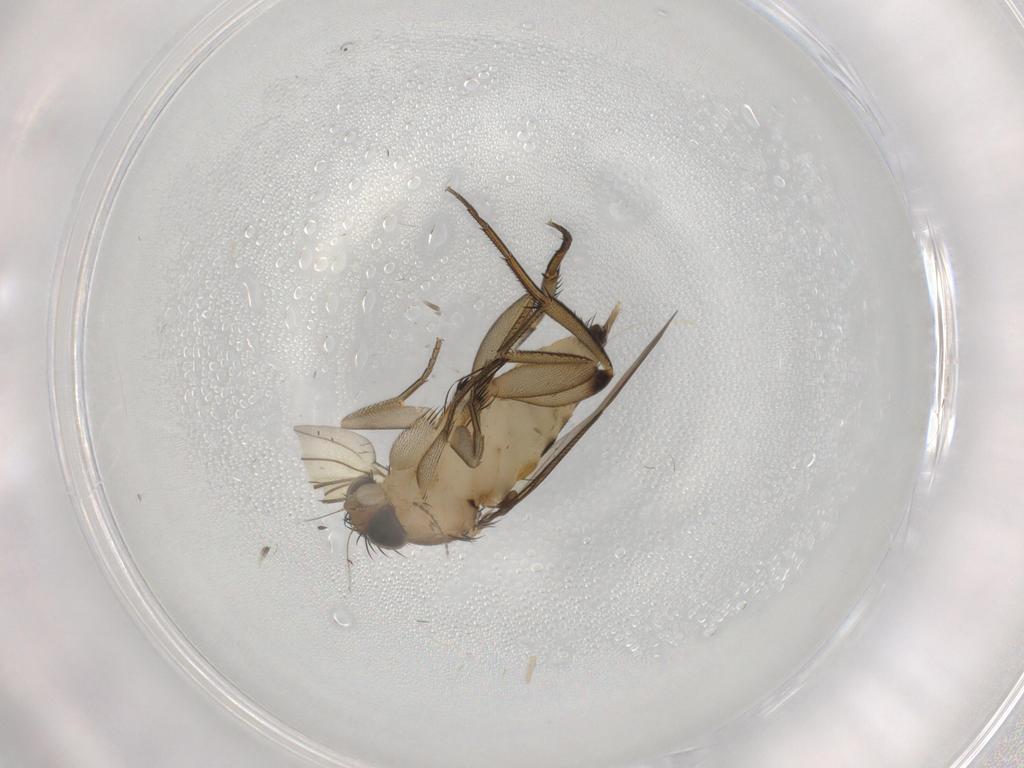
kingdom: Animalia
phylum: Arthropoda
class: Insecta
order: Diptera
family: Phoridae
